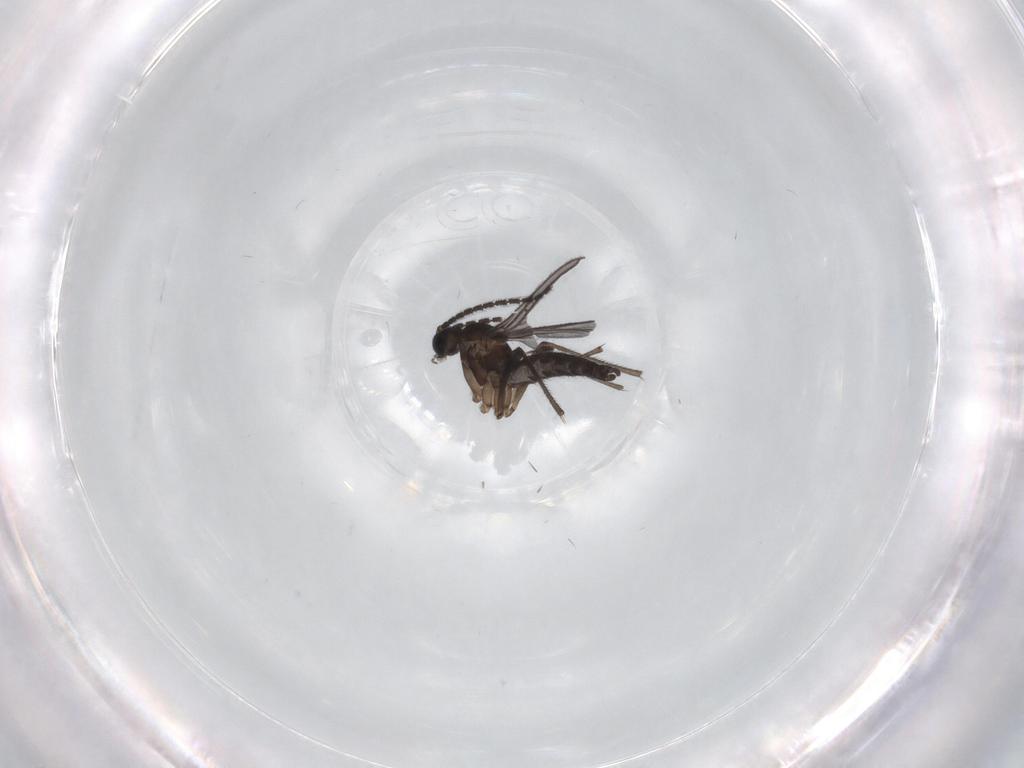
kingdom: Animalia
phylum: Arthropoda
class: Insecta
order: Diptera
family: Sciaridae
